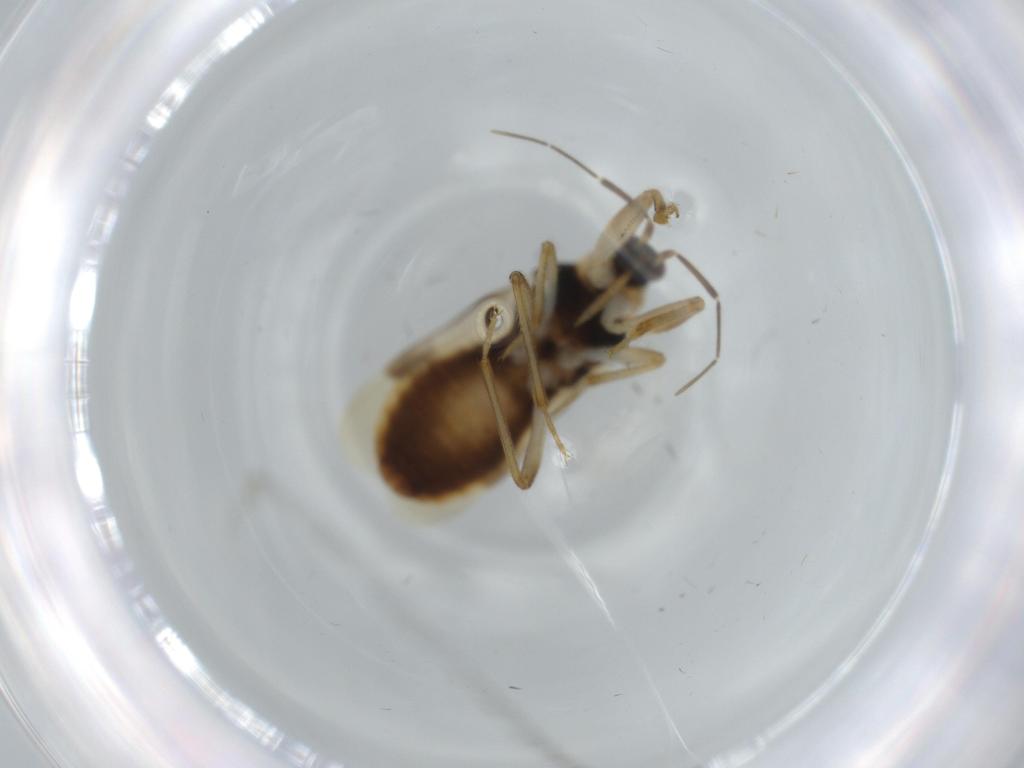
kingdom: Animalia
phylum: Arthropoda
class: Insecta
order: Hemiptera
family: Nabidae
